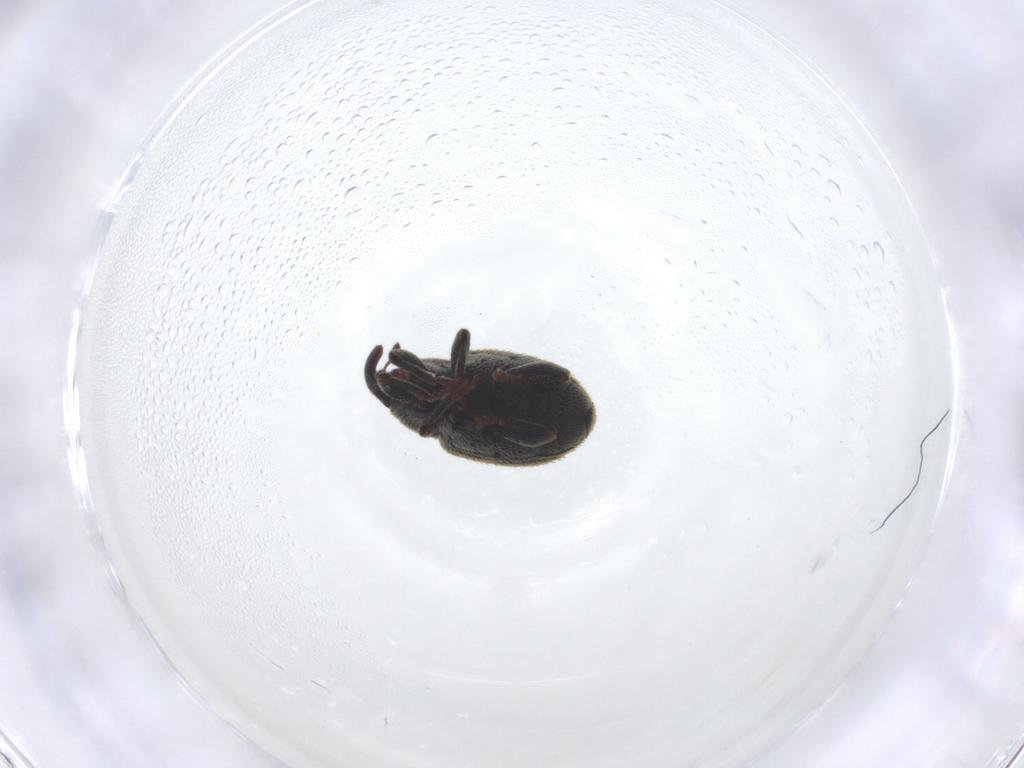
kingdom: Animalia
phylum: Arthropoda
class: Insecta
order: Coleoptera
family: Curculionidae
